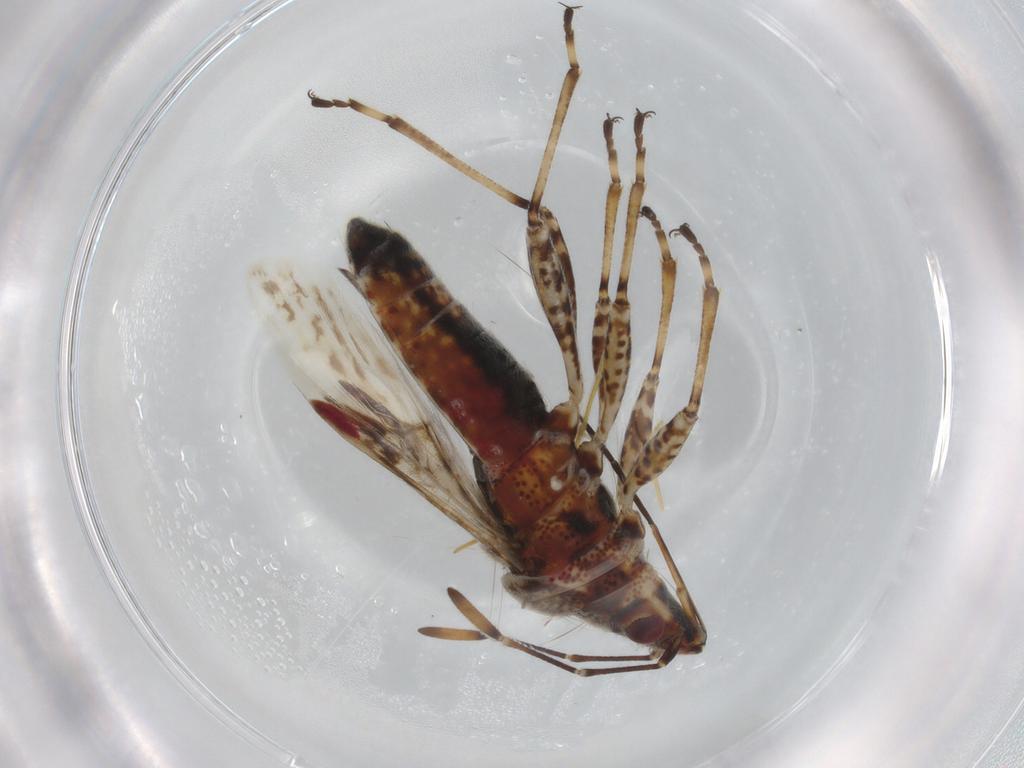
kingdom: Animalia
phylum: Arthropoda
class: Insecta
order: Hemiptera
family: Lygaeidae
